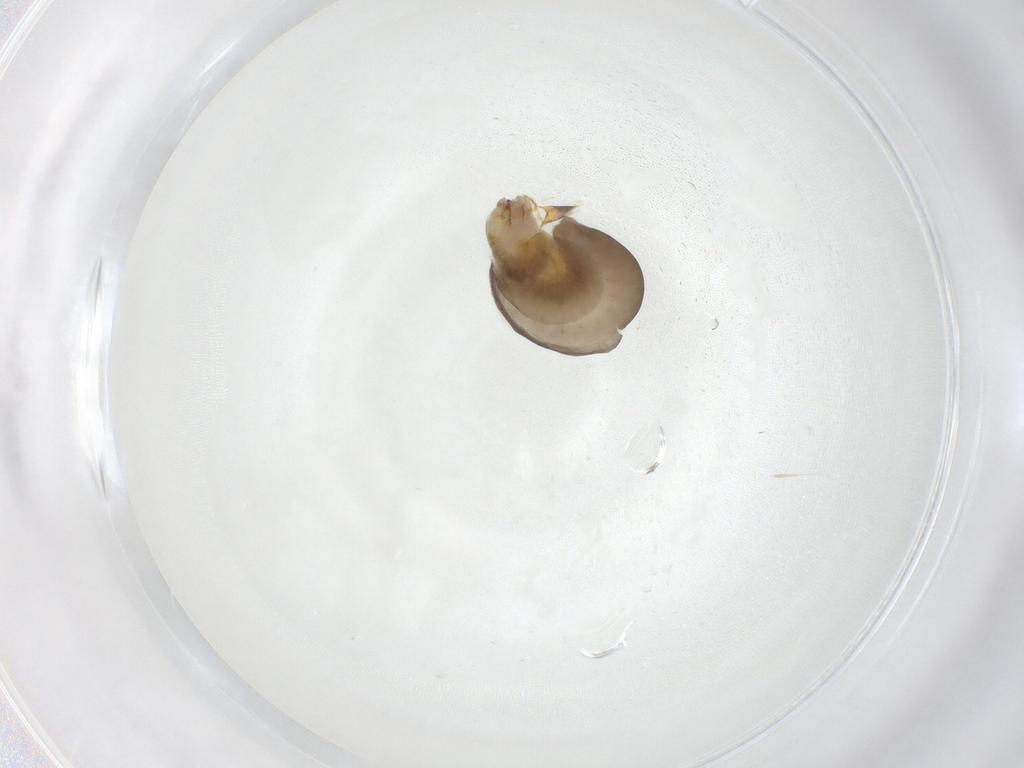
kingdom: Animalia
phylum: Arthropoda
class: Insecta
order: Hymenoptera
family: Dryinidae
